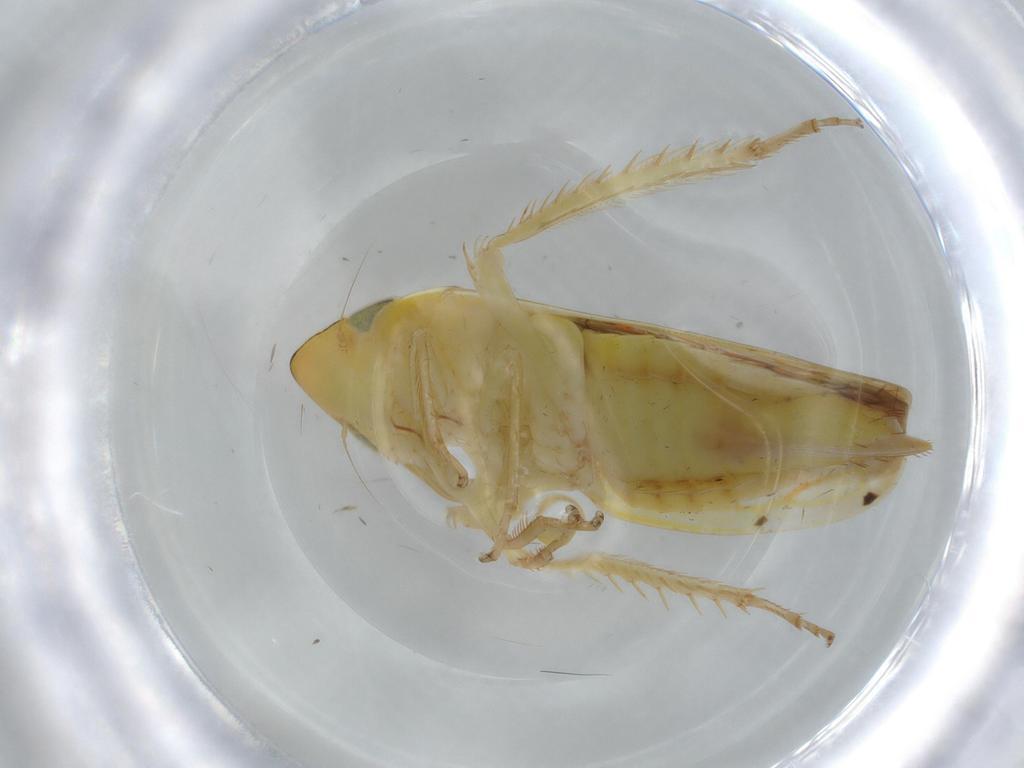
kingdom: Animalia
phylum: Arthropoda
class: Insecta
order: Hemiptera
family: Cicadellidae
